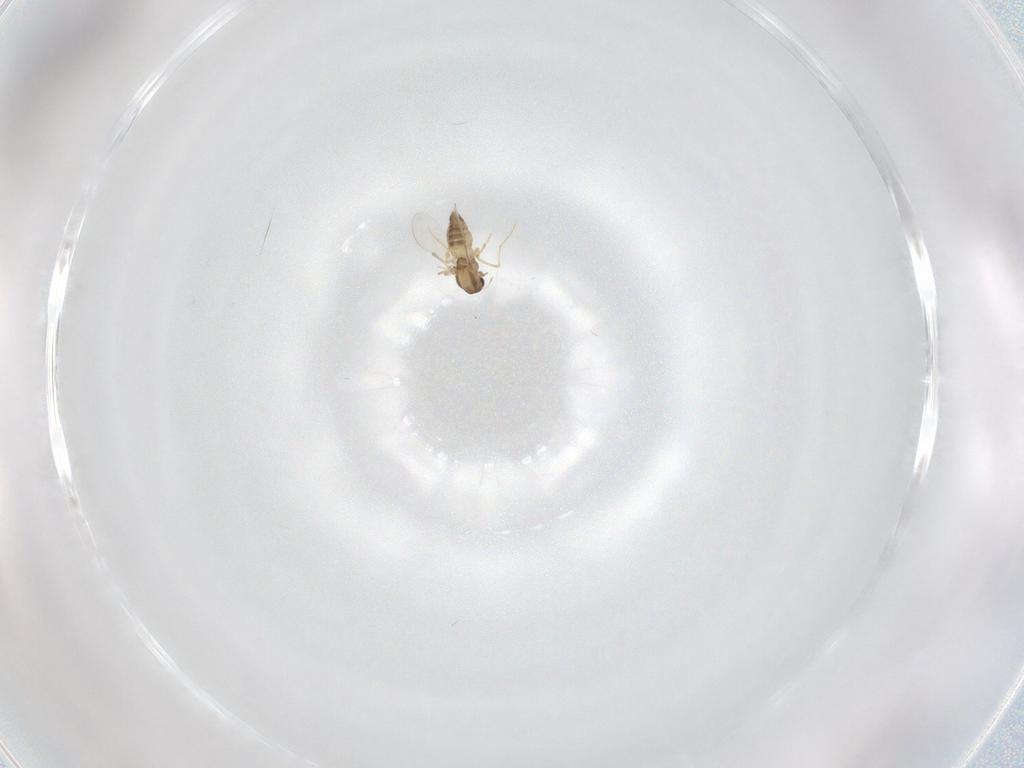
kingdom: Animalia
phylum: Arthropoda
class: Insecta
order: Diptera
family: Chironomidae
